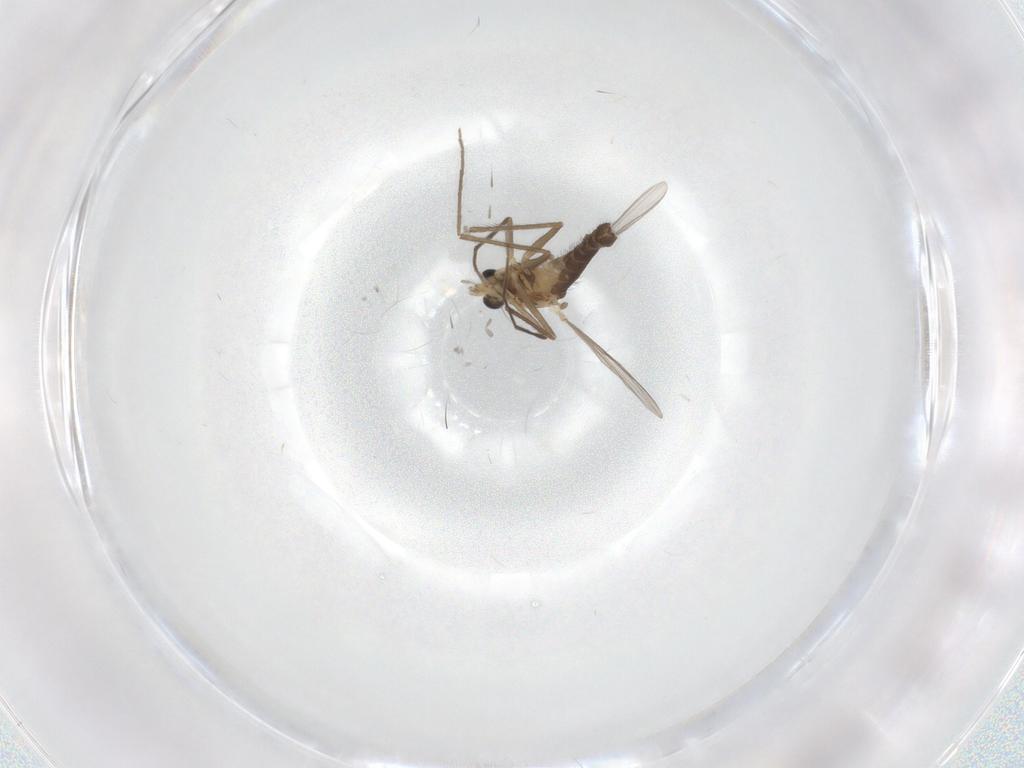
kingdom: Animalia
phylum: Arthropoda
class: Insecta
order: Diptera
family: Chironomidae
